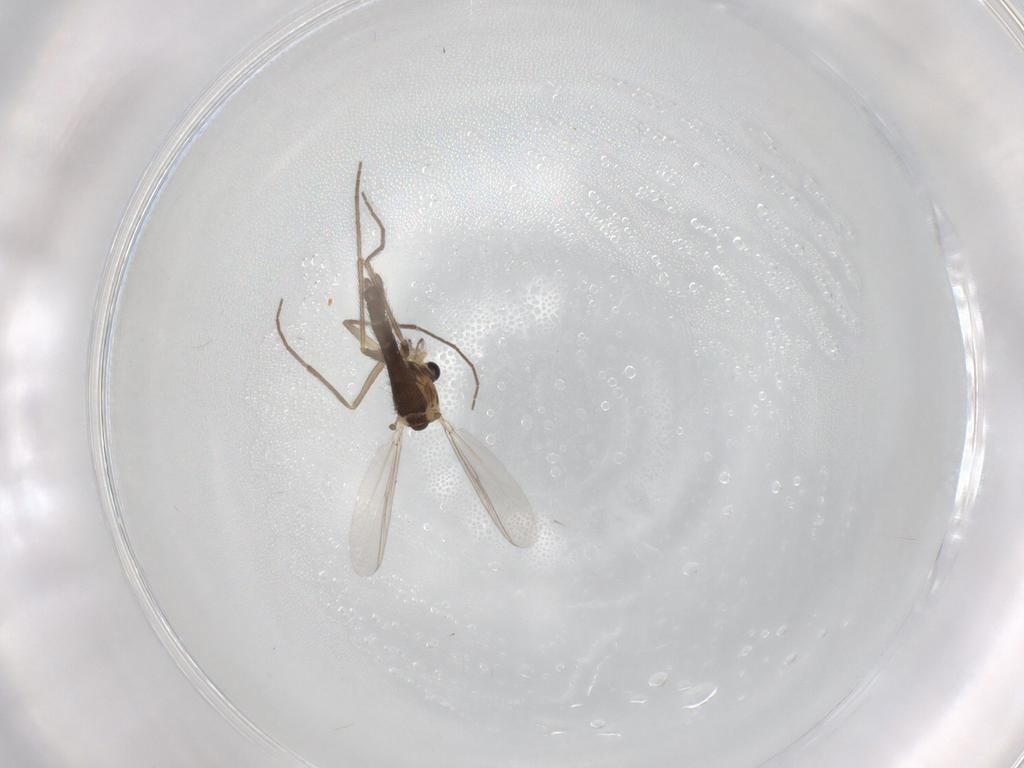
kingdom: Animalia
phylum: Arthropoda
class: Insecta
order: Diptera
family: Chironomidae
